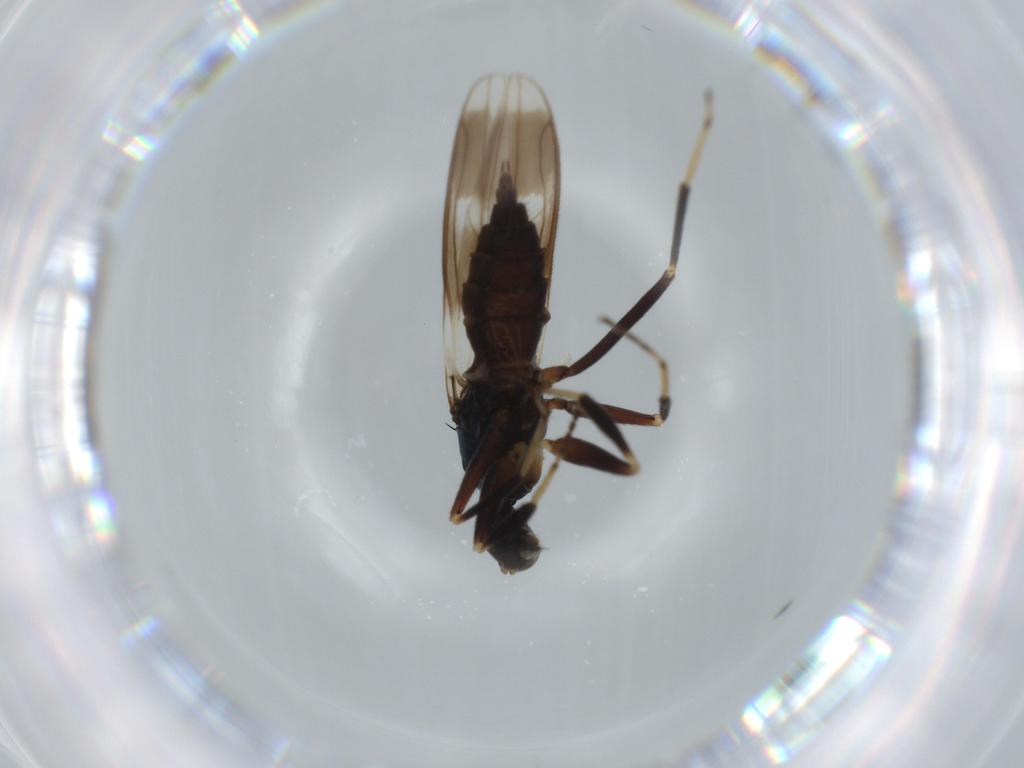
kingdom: Animalia
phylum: Arthropoda
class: Insecta
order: Diptera
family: Hybotidae
